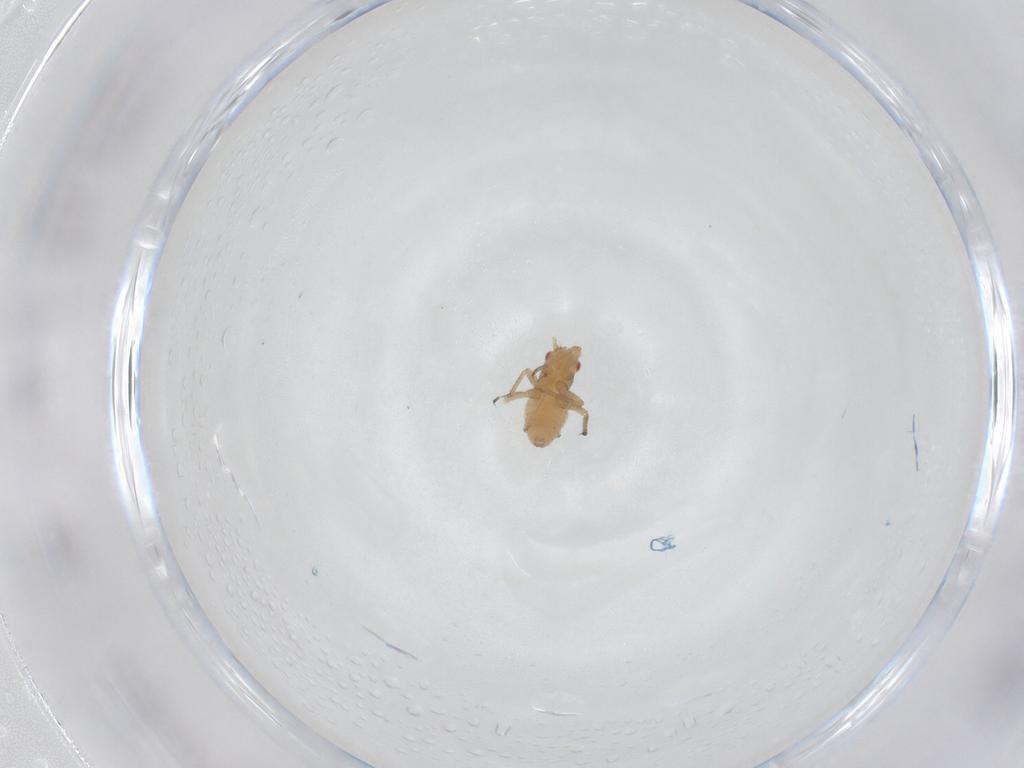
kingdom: Animalia
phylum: Arthropoda
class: Insecta
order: Hemiptera
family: Aphididae
